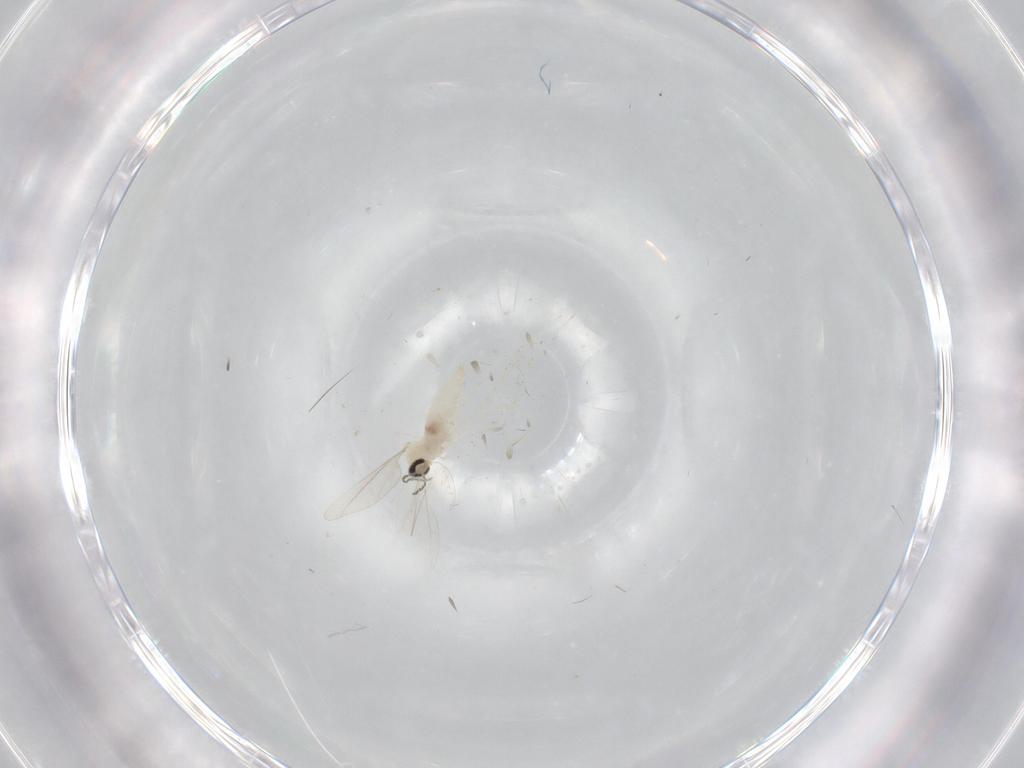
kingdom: Animalia
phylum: Arthropoda
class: Insecta
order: Diptera
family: Cecidomyiidae
